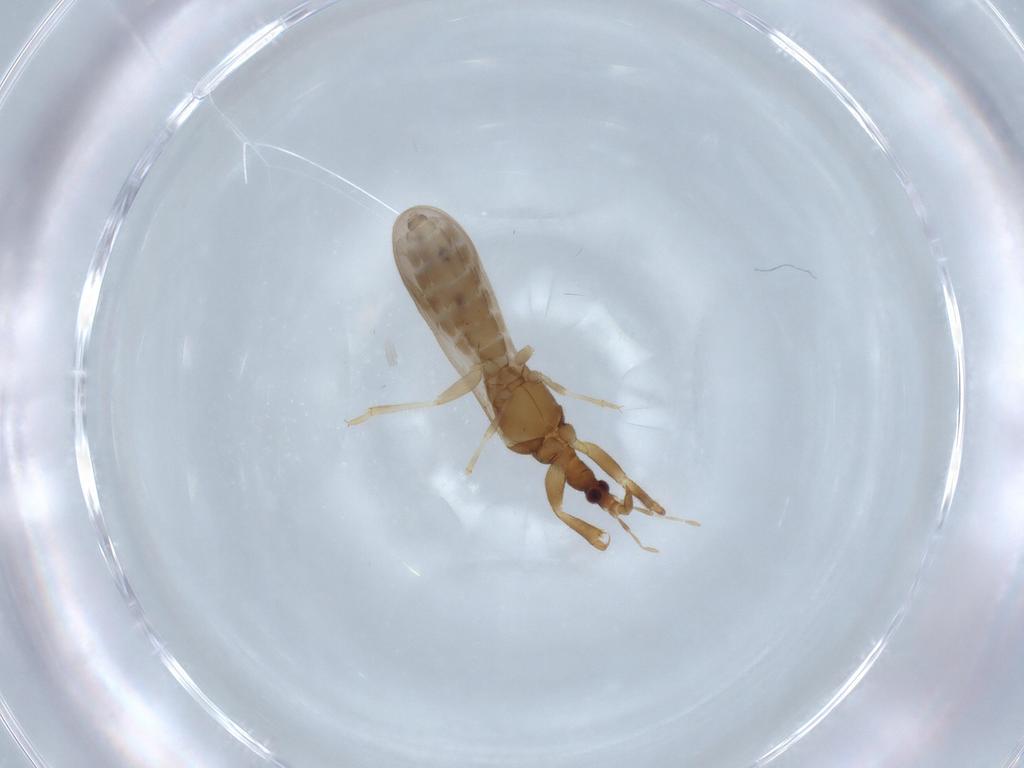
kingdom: Animalia
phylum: Arthropoda
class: Insecta
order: Hemiptera
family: Enicocephalidae
